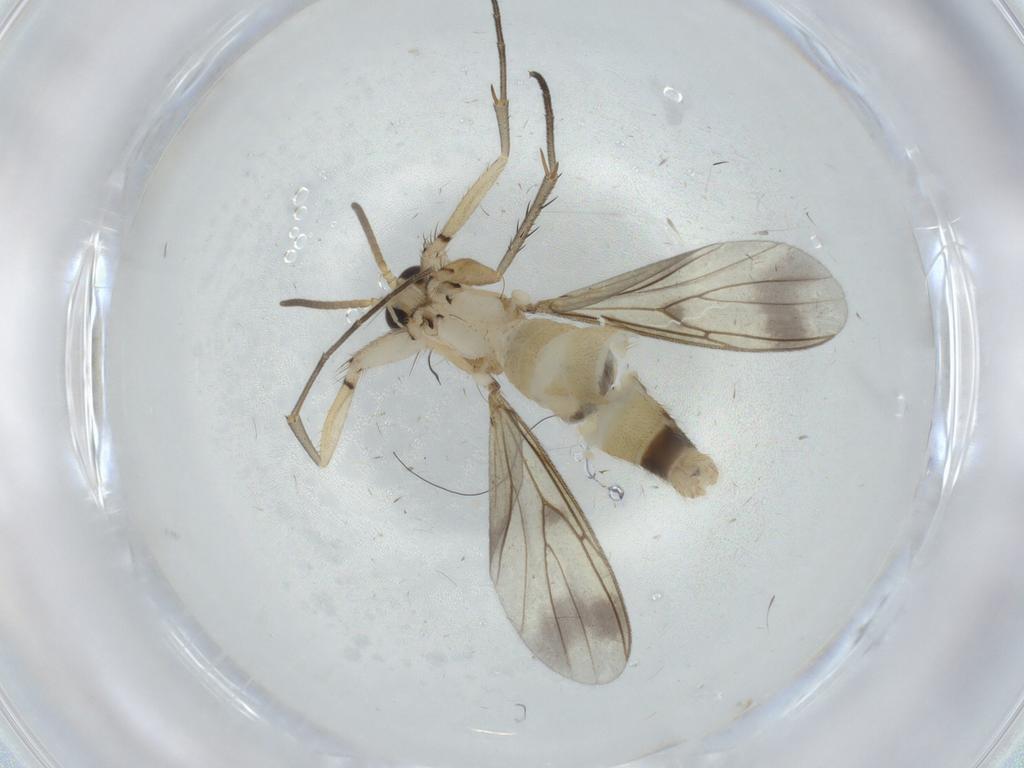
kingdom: Animalia
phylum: Arthropoda
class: Insecta
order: Diptera
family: Mycetophilidae
